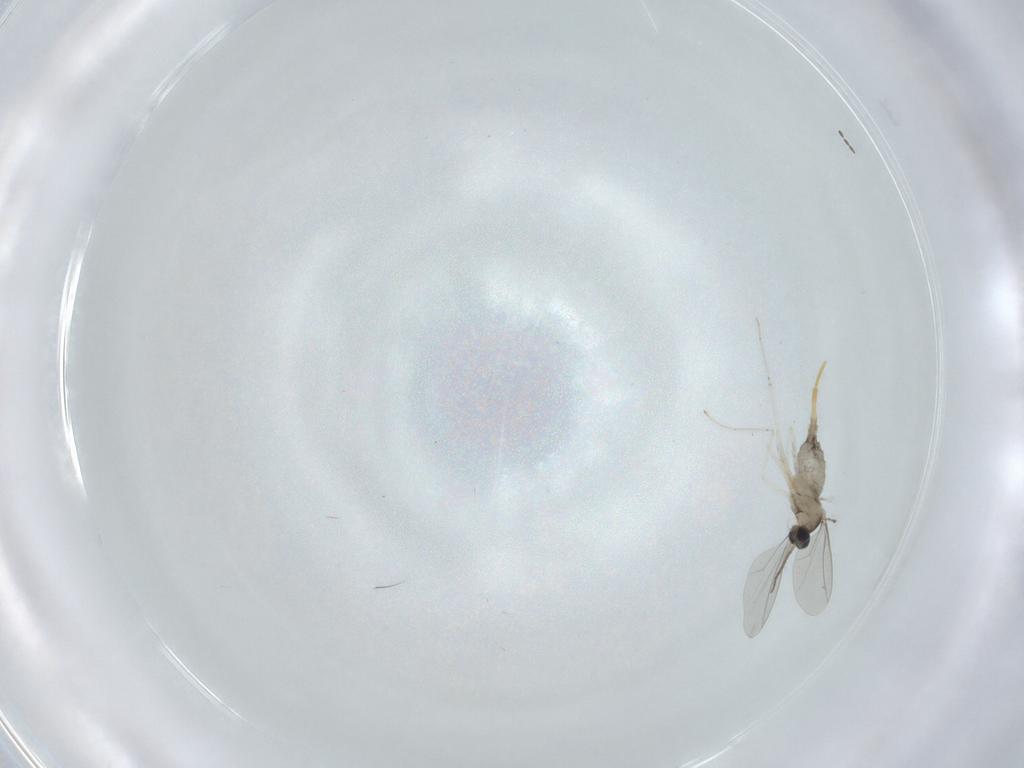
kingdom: Animalia
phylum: Arthropoda
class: Insecta
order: Diptera
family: Cecidomyiidae
